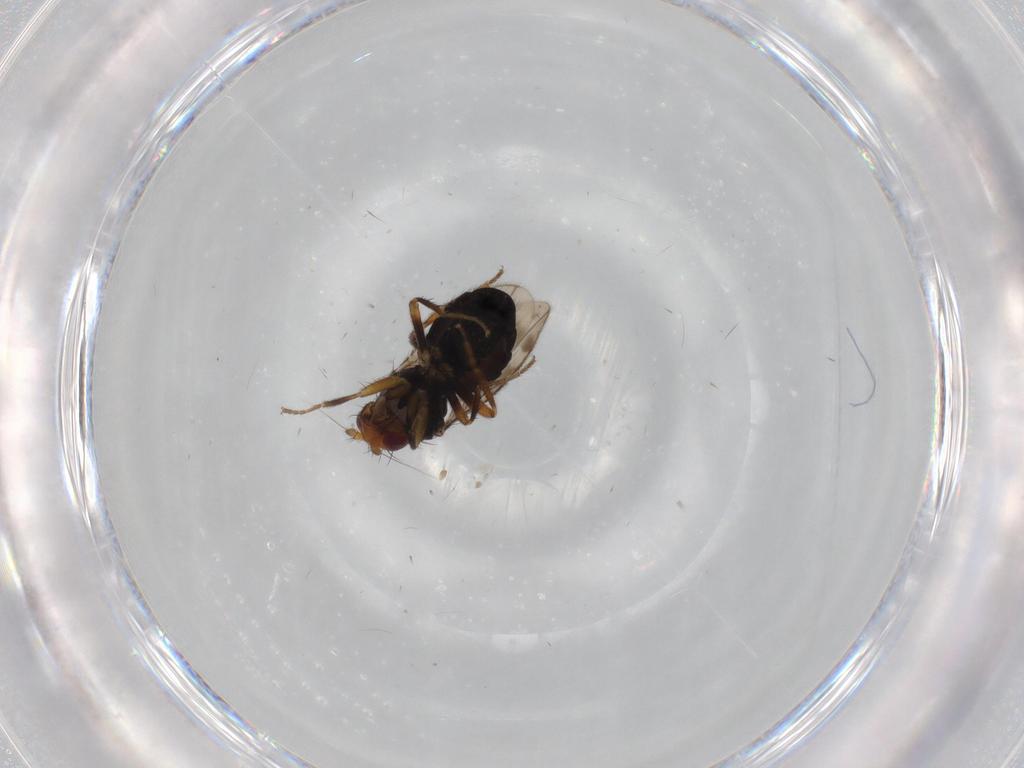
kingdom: Animalia
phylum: Arthropoda
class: Insecta
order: Diptera
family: Sphaeroceridae
